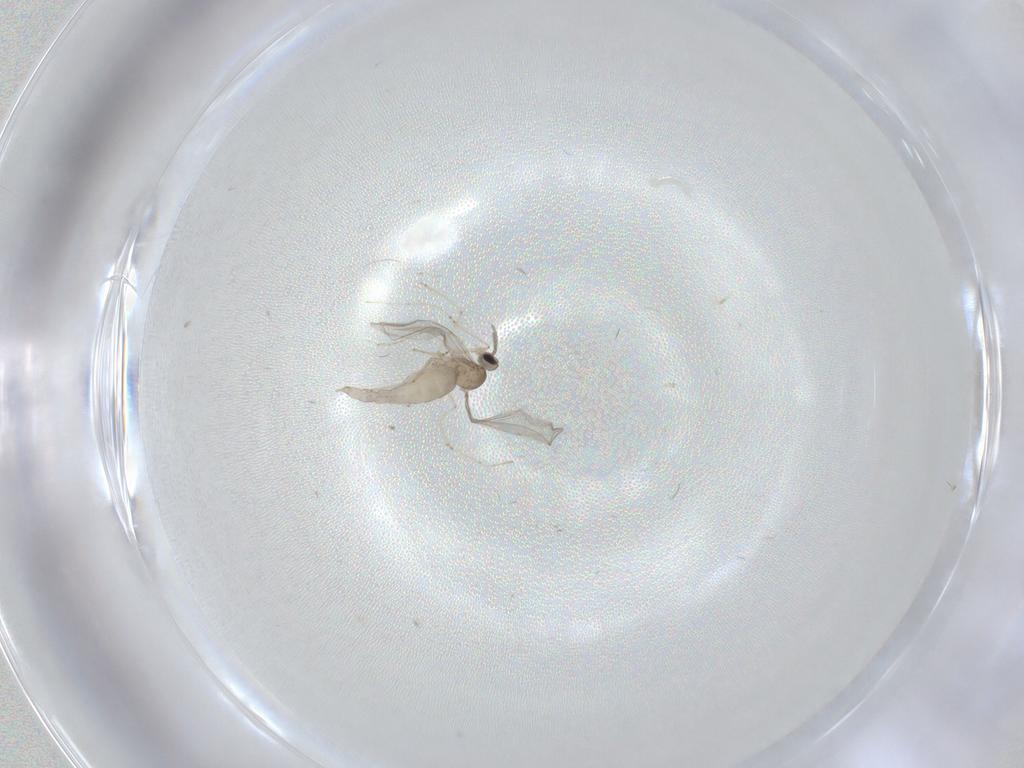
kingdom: Animalia
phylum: Arthropoda
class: Insecta
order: Diptera
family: Cecidomyiidae
